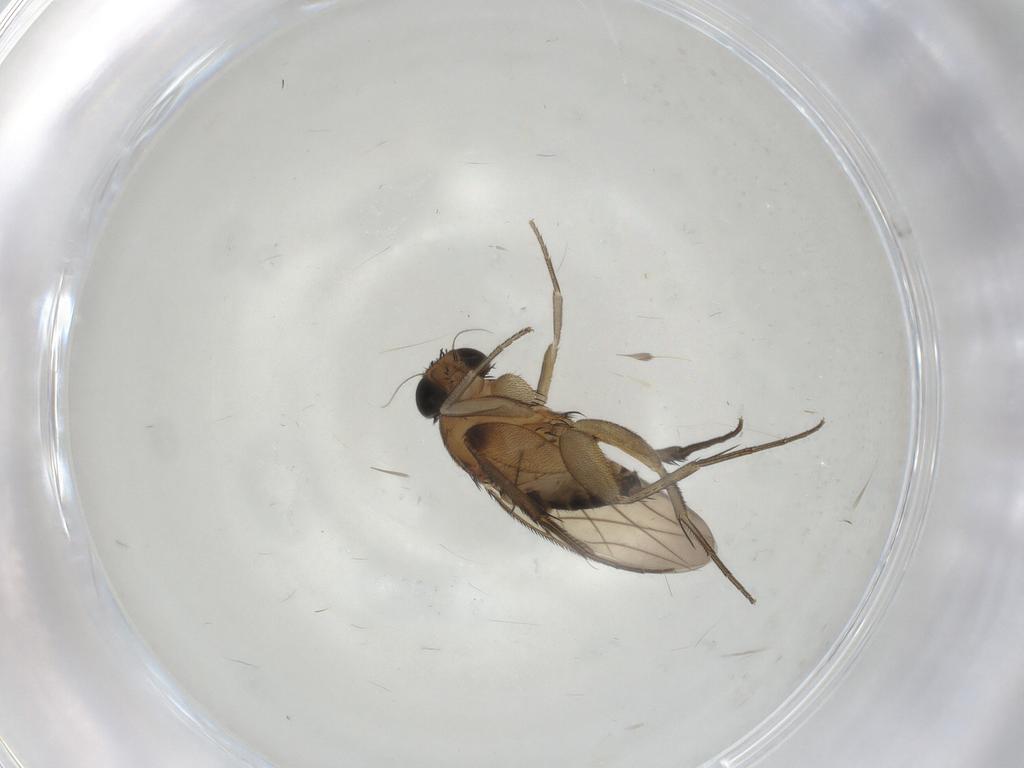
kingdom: Animalia
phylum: Arthropoda
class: Insecta
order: Diptera
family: Phoridae
